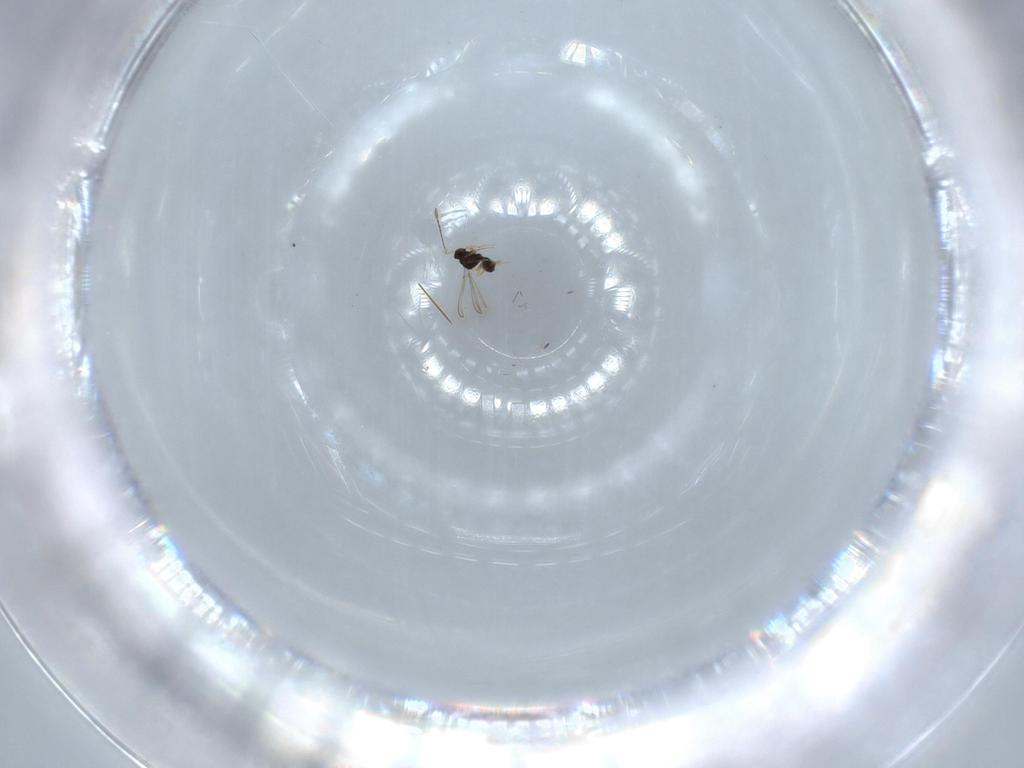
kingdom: Animalia
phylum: Arthropoda
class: Insecta
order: Hymenoptera
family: Mymaridae
